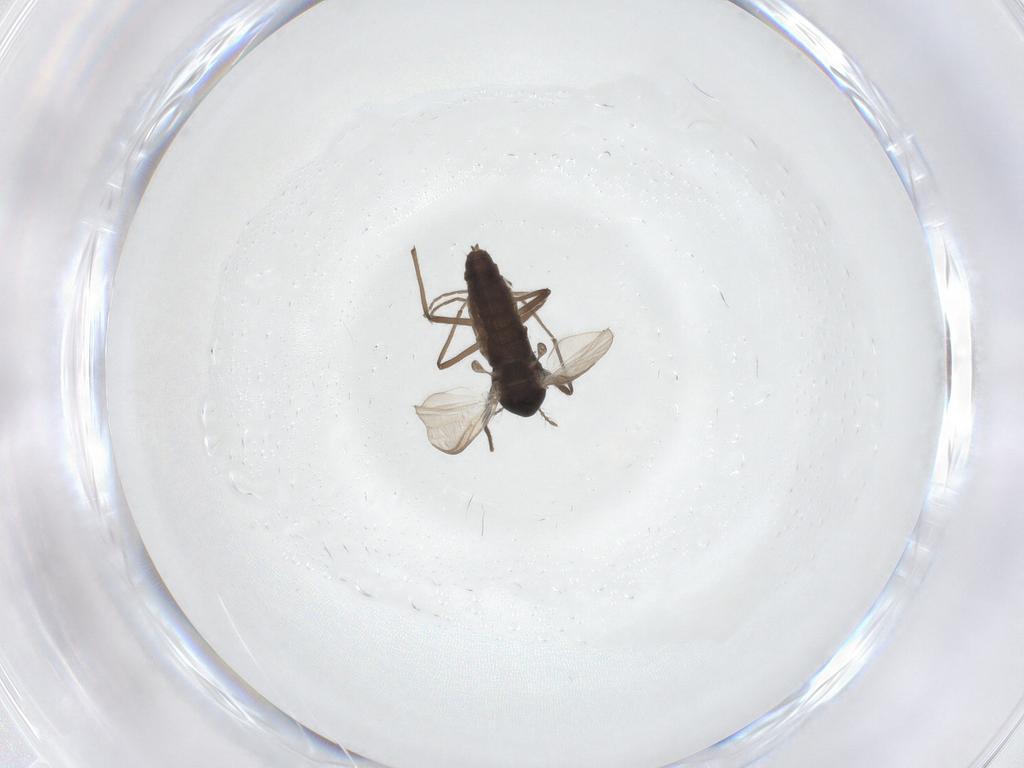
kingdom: Animalia
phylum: Arthropoda
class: Insecta
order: Diptera
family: Chironomidae
